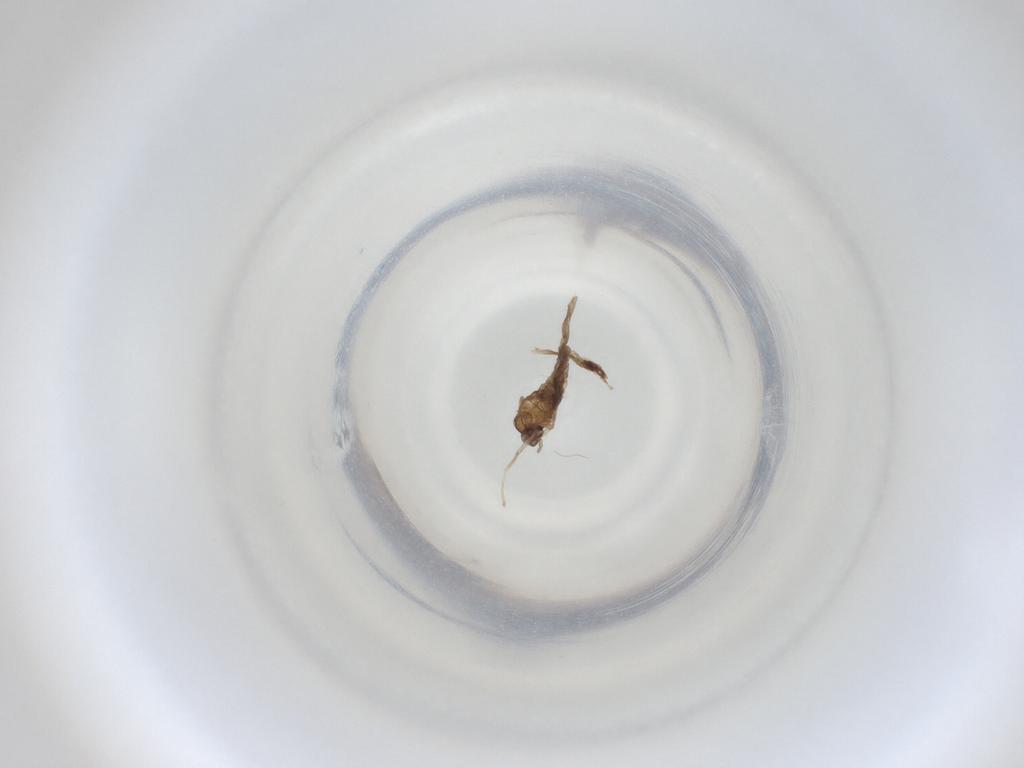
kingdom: Animalia
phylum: Arthropoda
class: Insecta
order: Diptera
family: Cecidomyiidae
